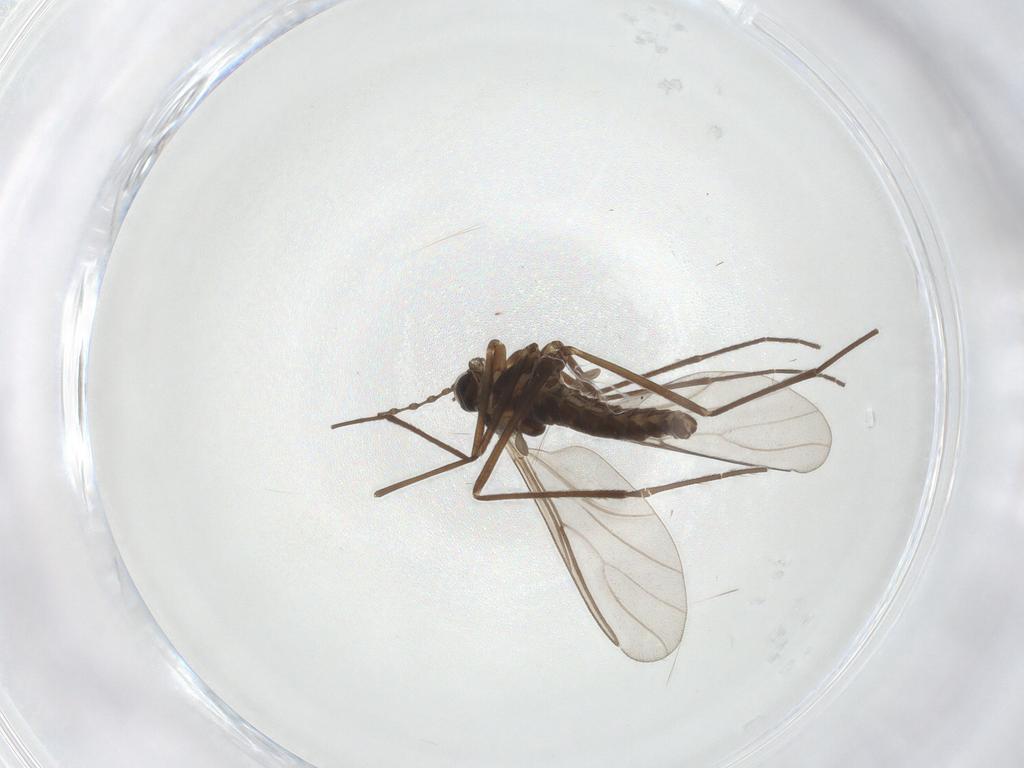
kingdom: Animalia
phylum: Arthropoda
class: Insecta
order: Diptera
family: Cecidomyiidae
